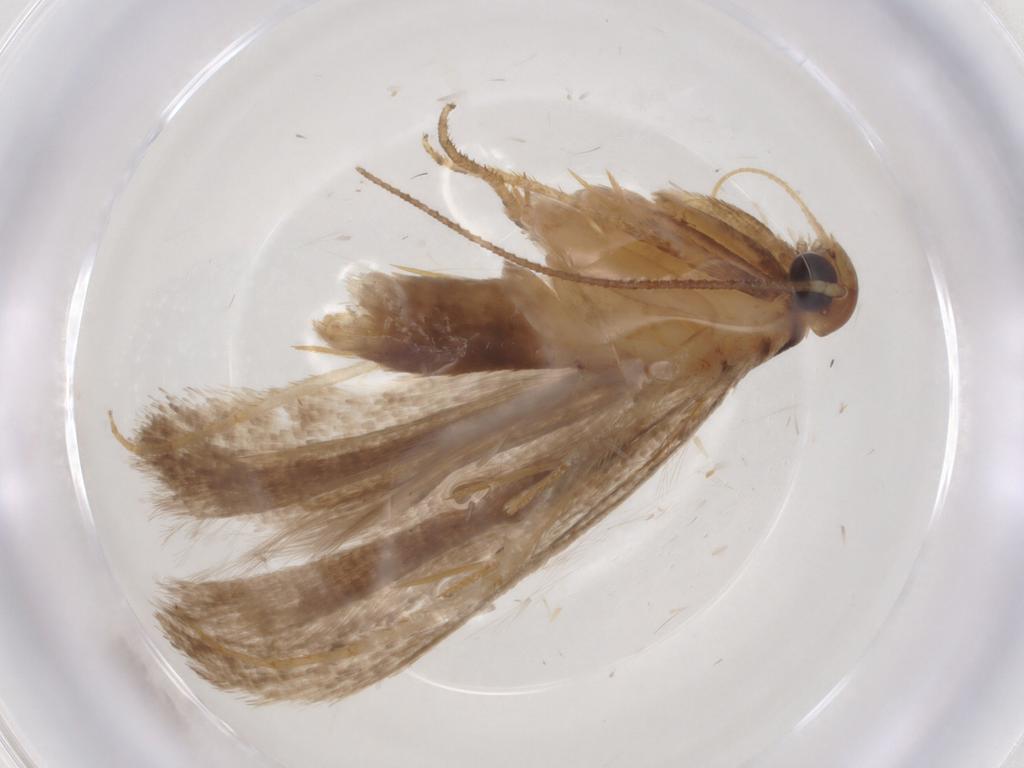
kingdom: Animalia
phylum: Arthropoda
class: Insecta
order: Lepidoptera
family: Gelechiidae
